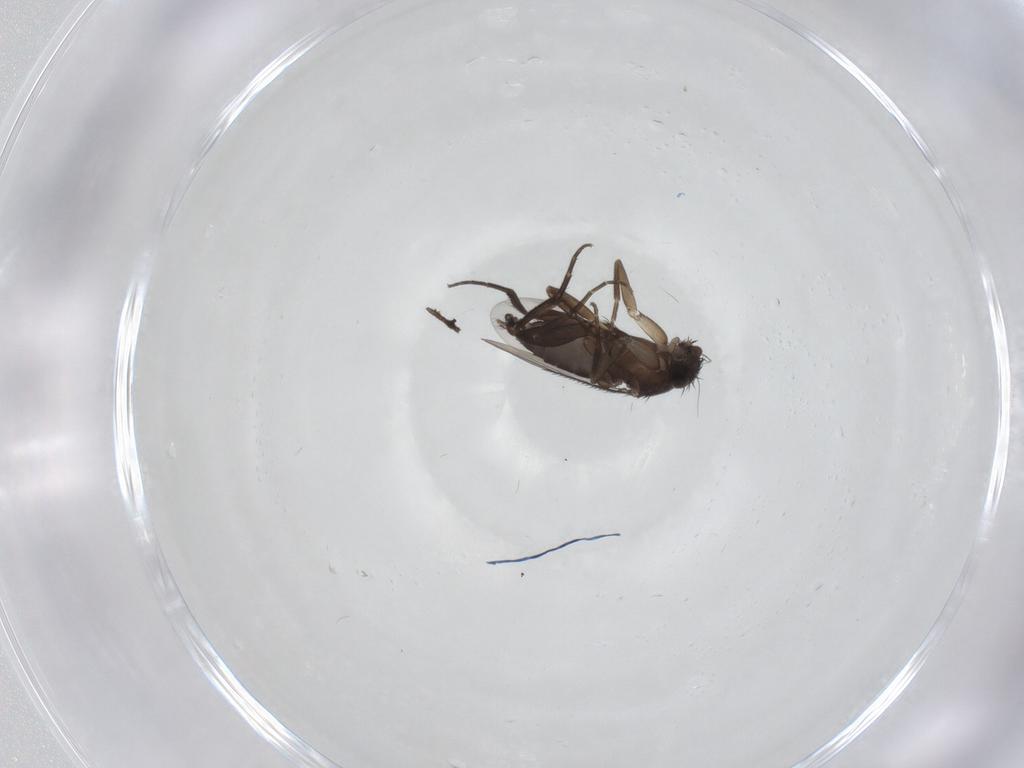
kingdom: Animalia
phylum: Arthropoda
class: Insecta
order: Diptera
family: Phoridae
